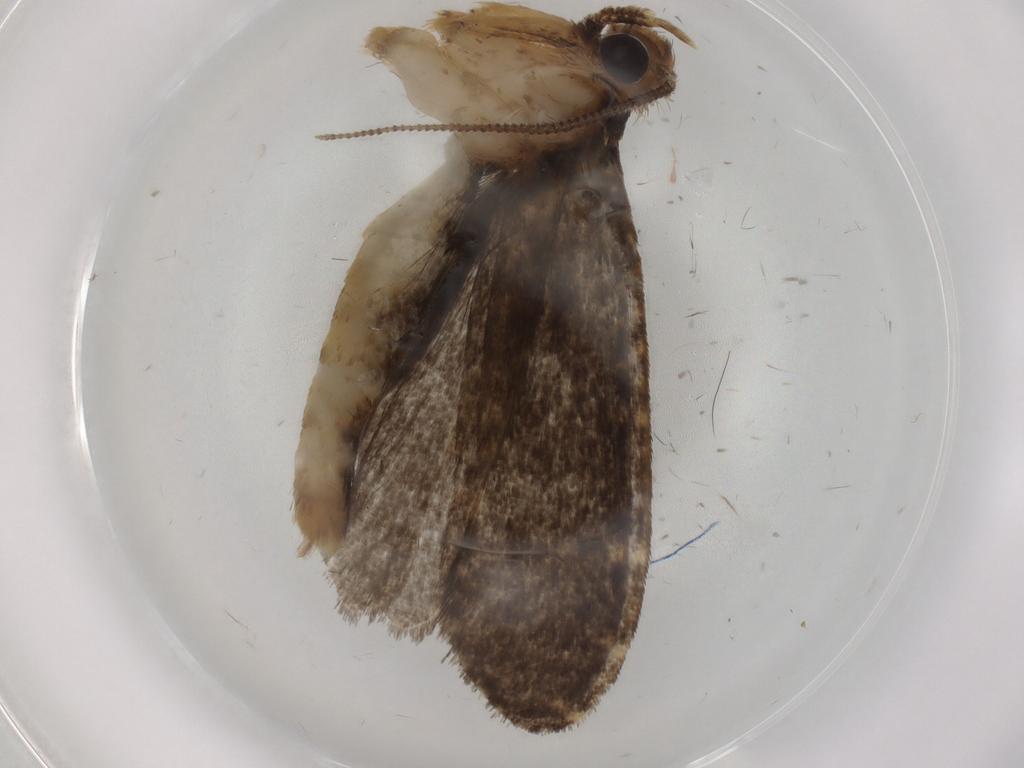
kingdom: Animalia
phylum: Arthropoda
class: Insecta
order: Lepidoptera
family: Tineidae
